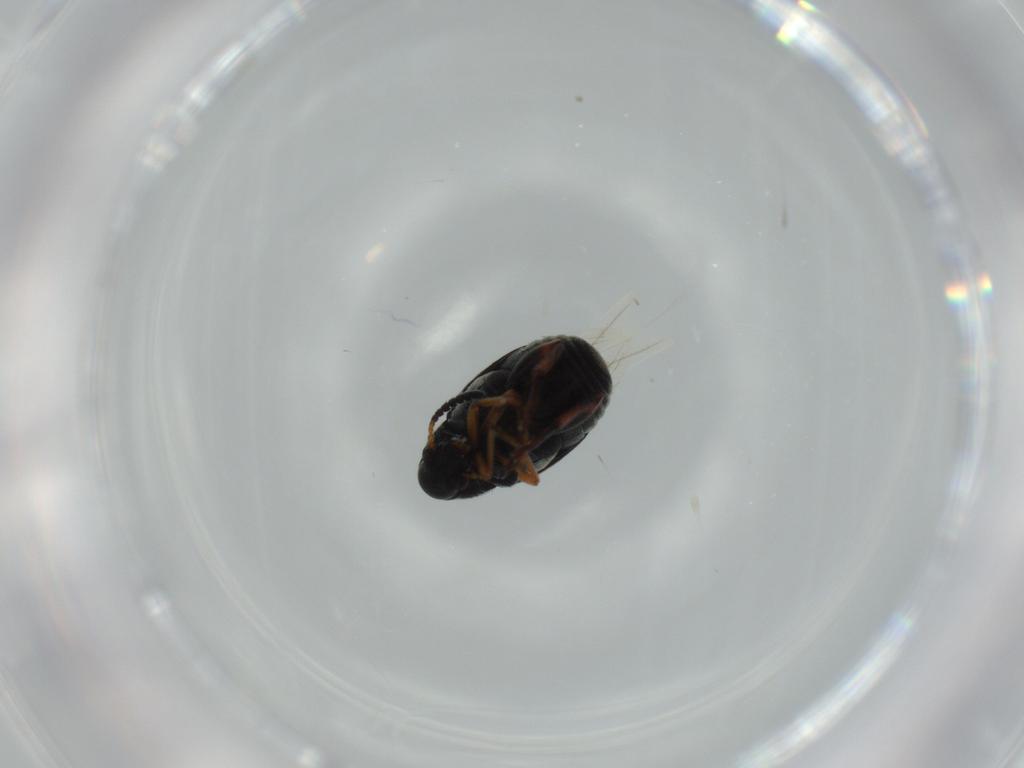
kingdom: Animalia
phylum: Arthropoda
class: Insecta
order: Coleoptera
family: Chrysomelidae
